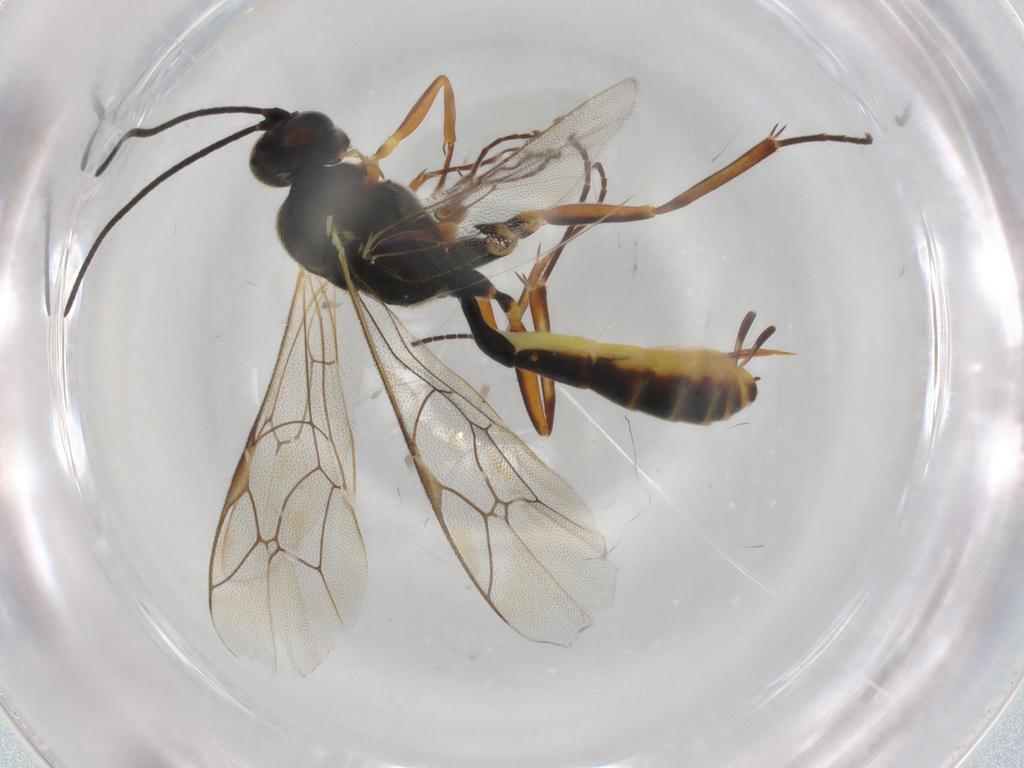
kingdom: Animalia
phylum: Arthropoda
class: Insecta
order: Hymenoptera
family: Ichneumonidae
